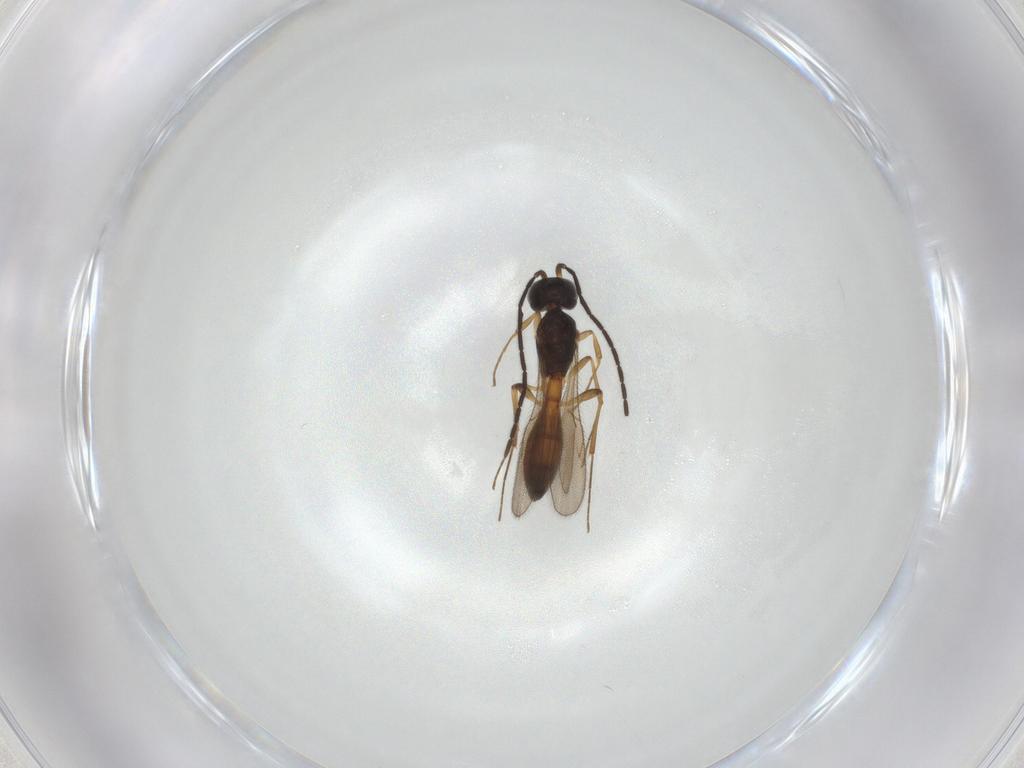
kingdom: Animalia
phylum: Arthropoda
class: Insecta
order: Hymenoptera
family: Scelionidae
